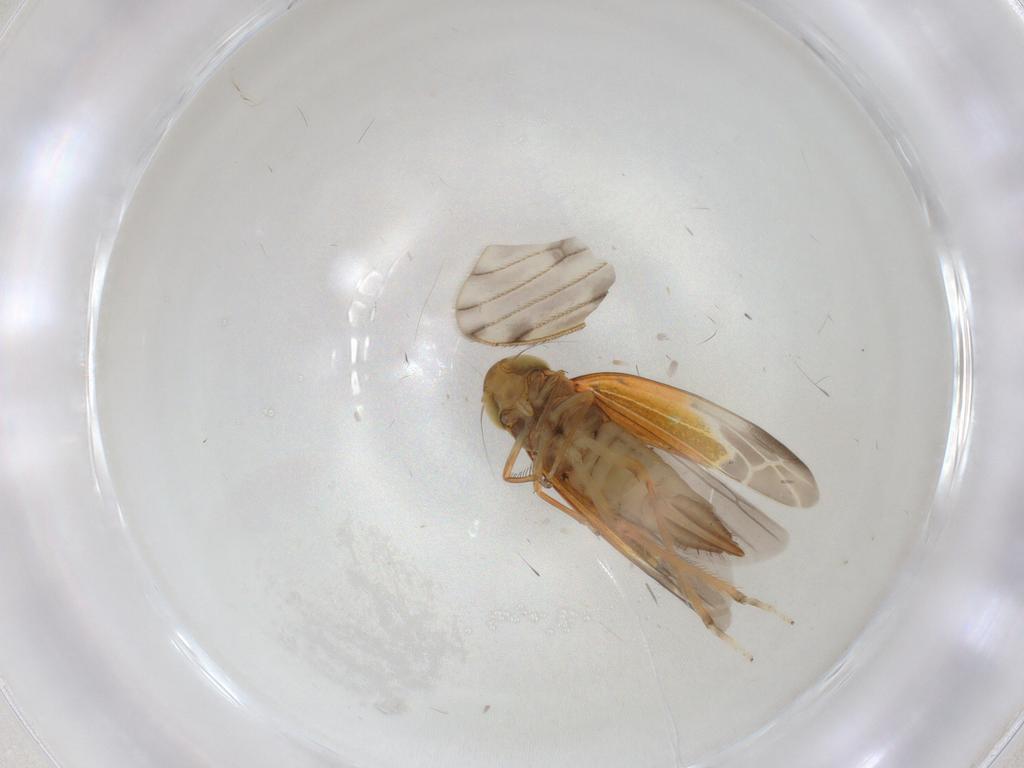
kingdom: Animalia
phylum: Arthropoda
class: Insecta
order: Hemiptera
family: Cicadellidae
